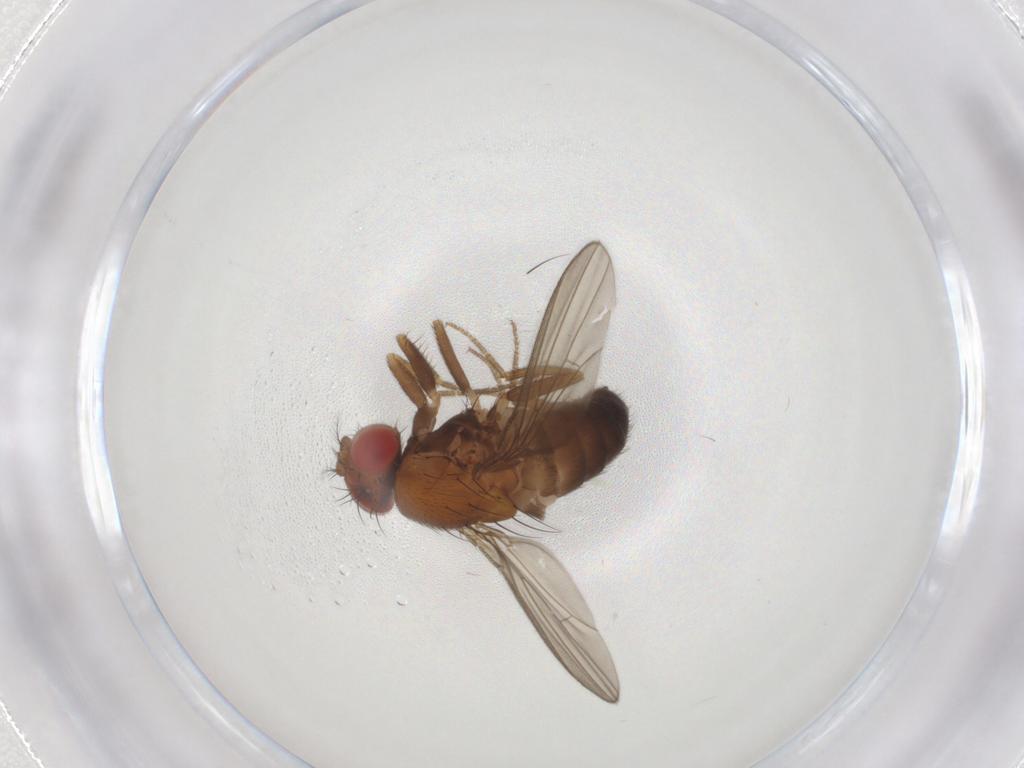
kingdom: Animalia
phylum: Arthropoda
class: Insecta
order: Diptera
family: Drosophilidae
